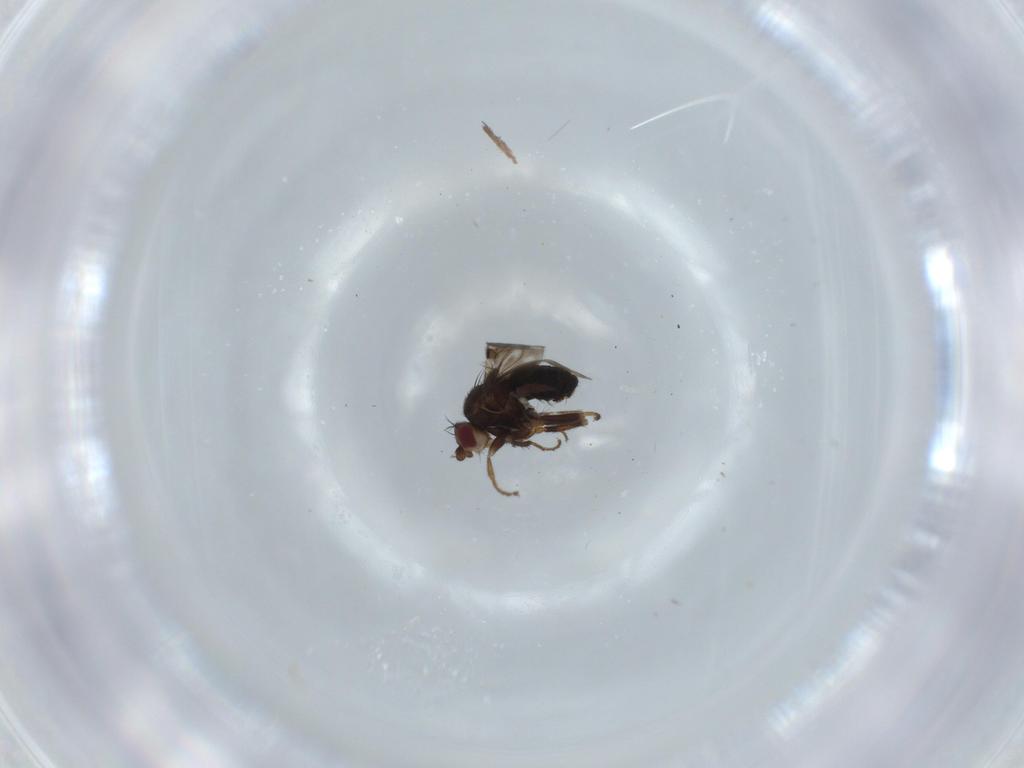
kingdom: Animalia
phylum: Arthropoda
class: Insecta
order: Diptera
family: Sphaeroceridae
